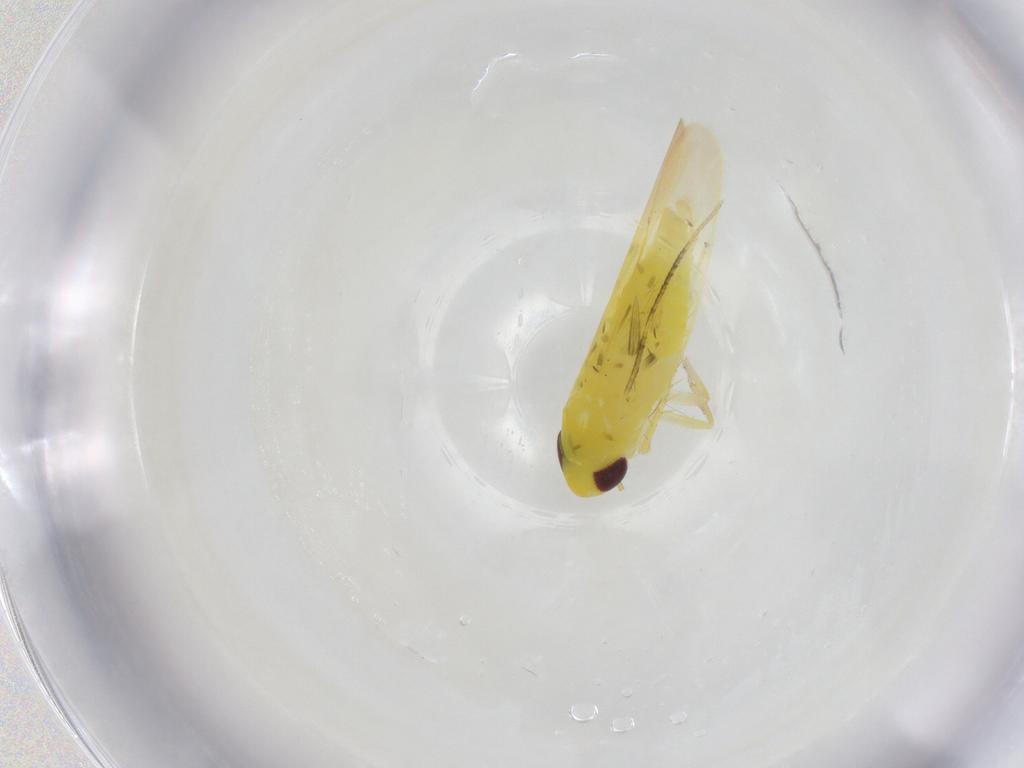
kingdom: Animalia
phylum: Arthropoda
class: Insecta
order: Hemiptera
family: Cicadellidae
